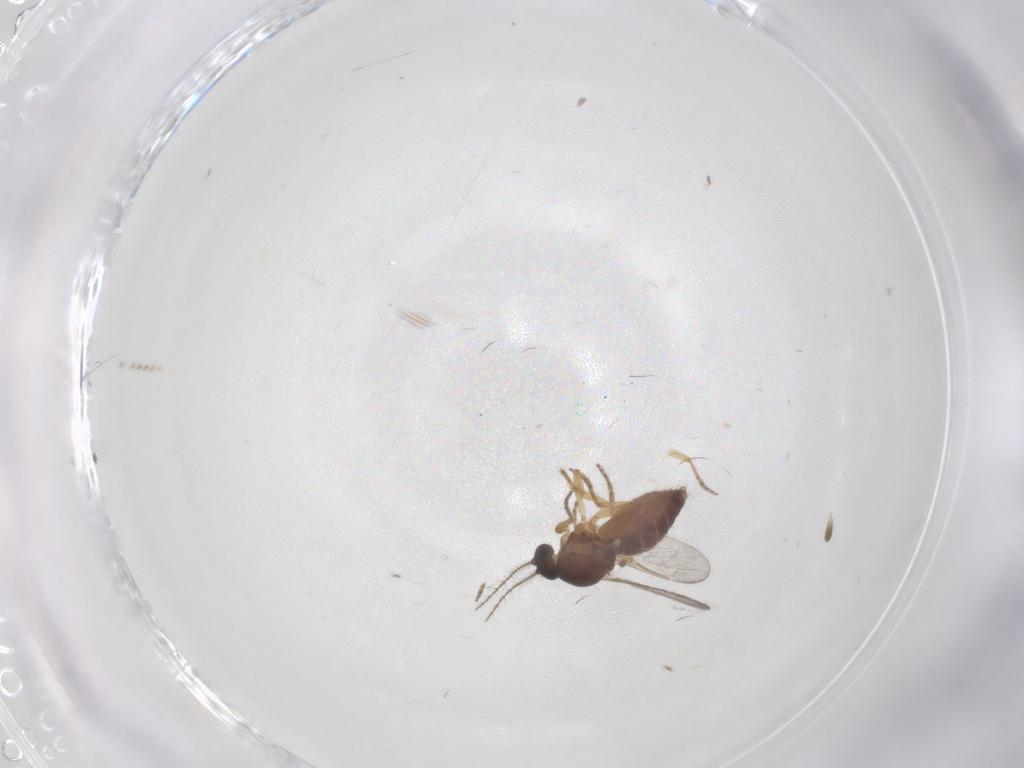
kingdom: Animalia
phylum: Arthropoda
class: Insecta
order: Diptera
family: Ceratopogonidae
